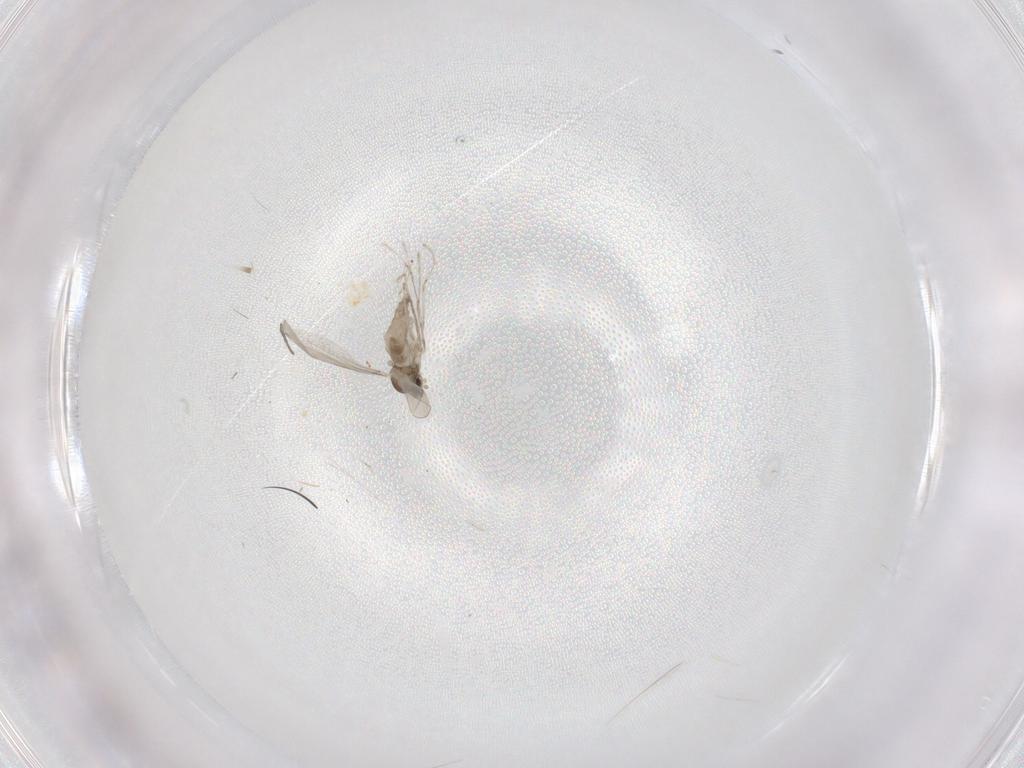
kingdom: Animalia
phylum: Arthropoda
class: Insecta
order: Diptera
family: Cecidomyiidae
